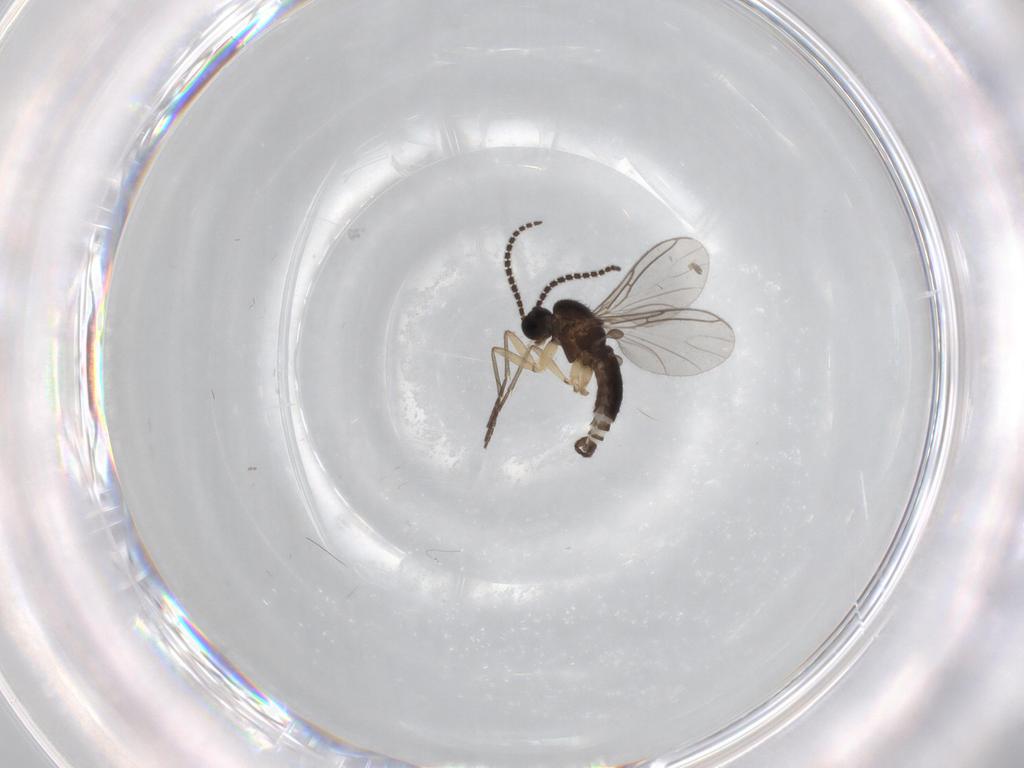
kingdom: Animalia
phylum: Arthropoda
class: Insecta
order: Diptera
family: Sciaridae
